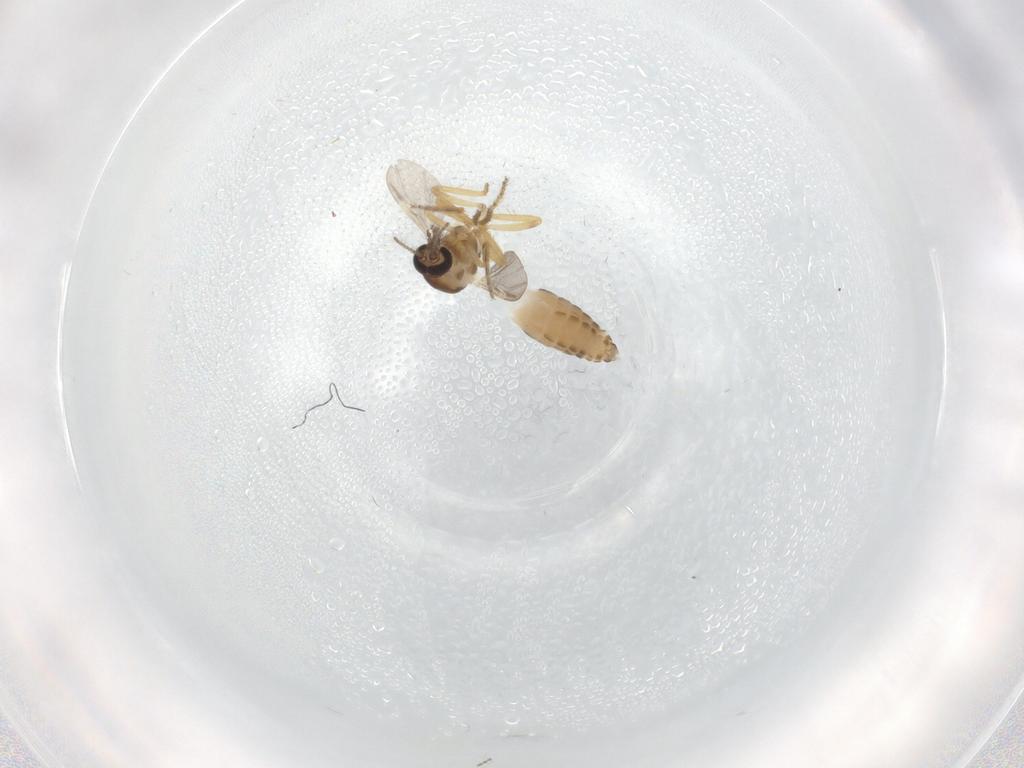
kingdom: Animalia
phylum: Arthropoda
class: Insecta
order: Diptera
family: Ceratopogonidae
